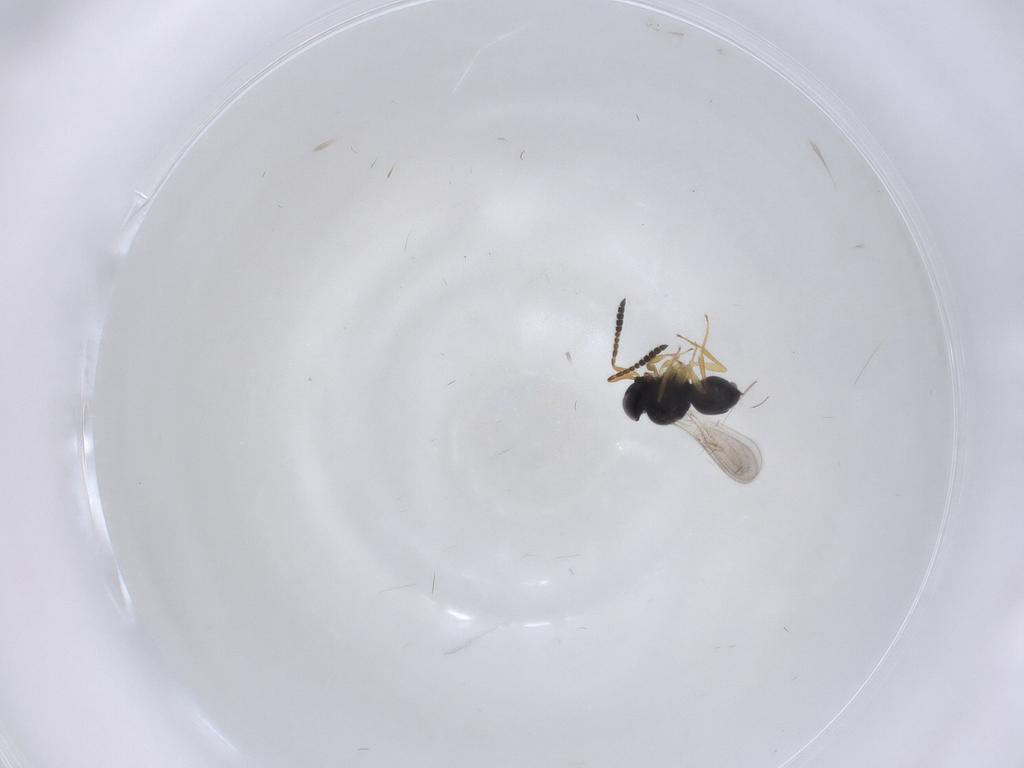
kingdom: Animalia
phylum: Arthropoda
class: Insecta
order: Hymenoptera
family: Scelionidae
